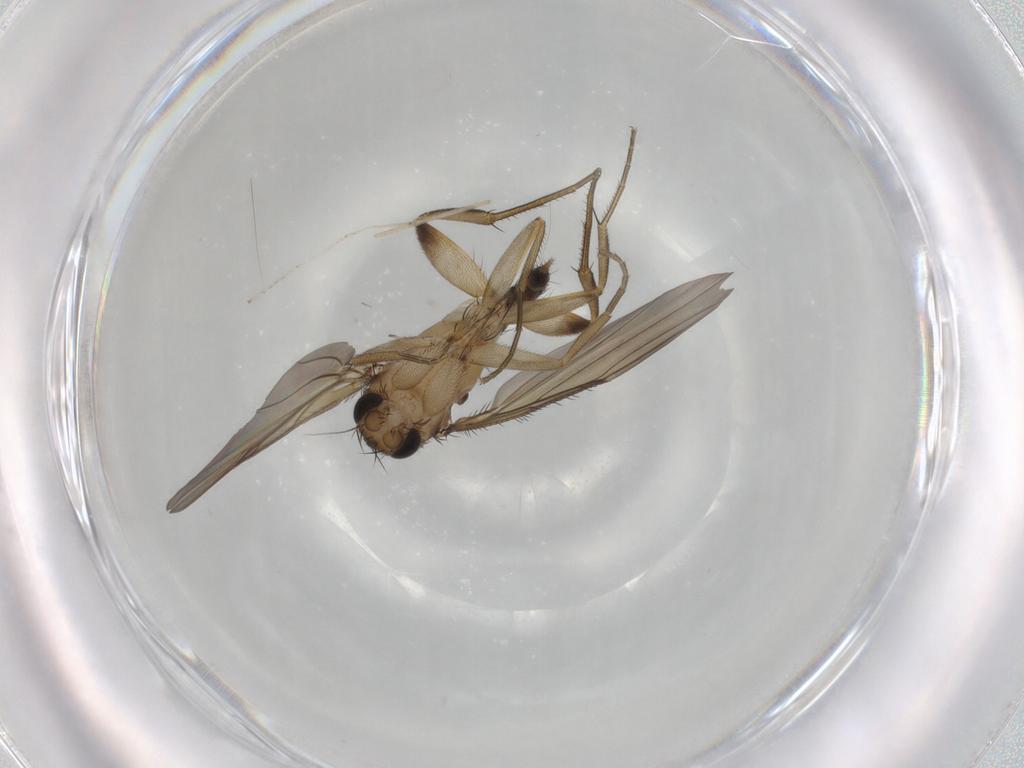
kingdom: Animalia
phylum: Arthropoda
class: Insecta
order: Diptera
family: Phoridae
